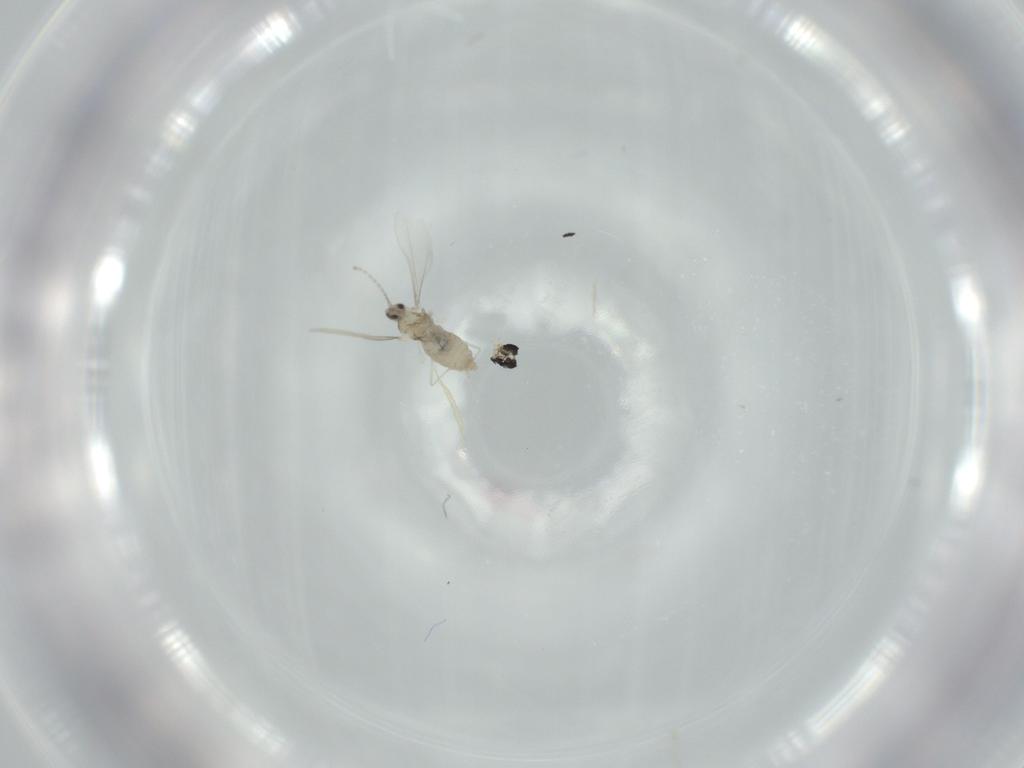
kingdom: Animalia
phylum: Arthropoda
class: Insecta
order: Diptera
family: Cecidomyiidae
